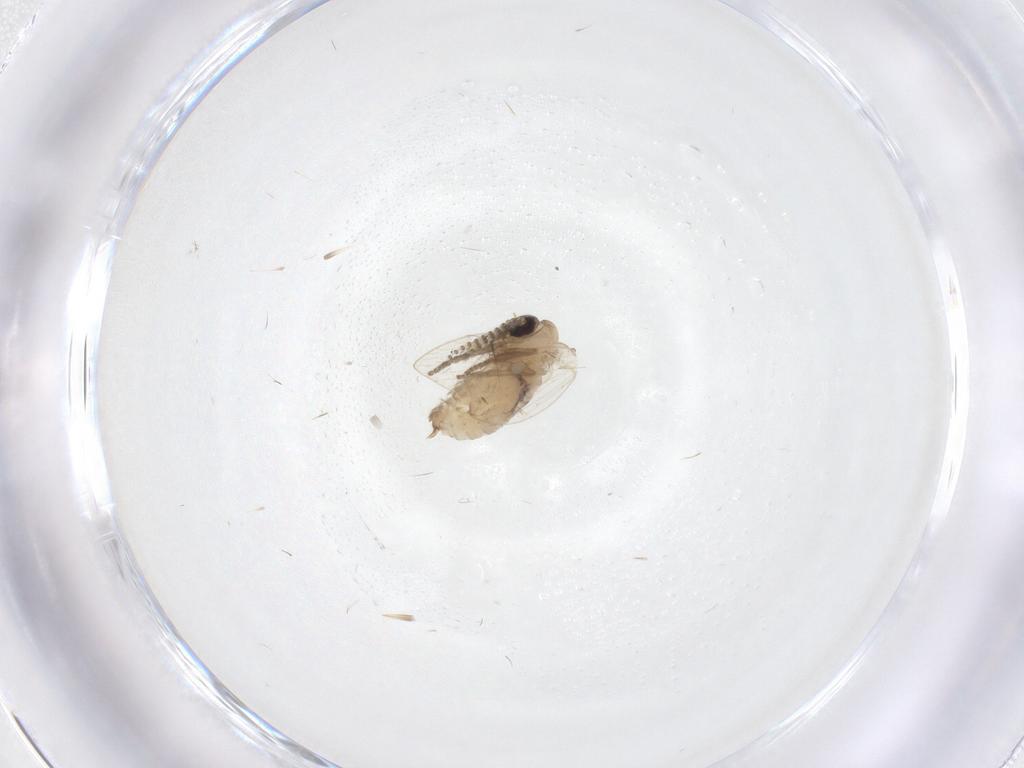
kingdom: Animalia
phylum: Arthropoda
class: Insecta
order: Diptera
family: Psychodidae
